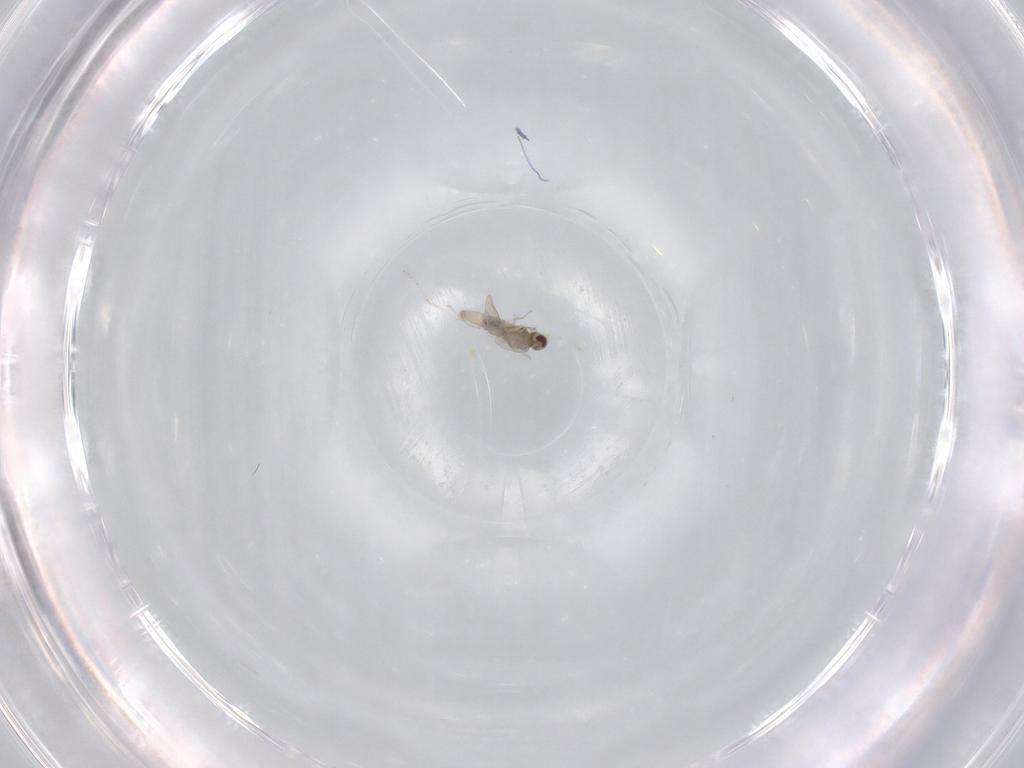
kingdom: Animalia
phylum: Arthropoda
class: Insecta
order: Diptera
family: Cecidomyiidae
